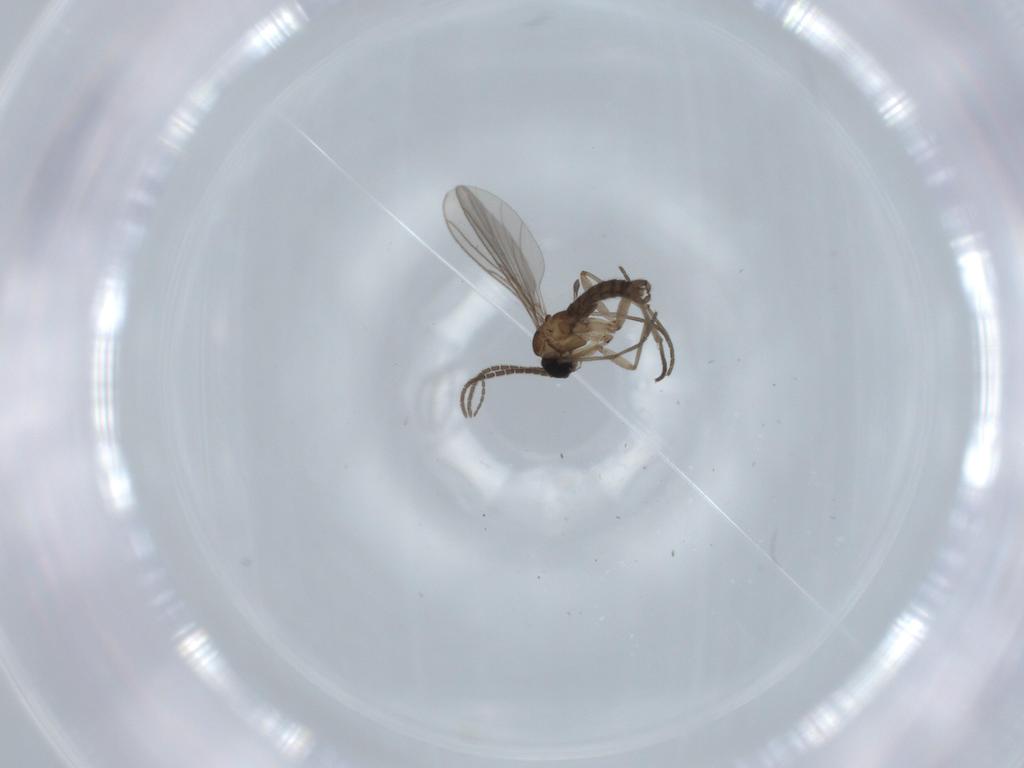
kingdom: Animalia
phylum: Arthropoda
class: Insecta
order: Diptera
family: Sciaridae
